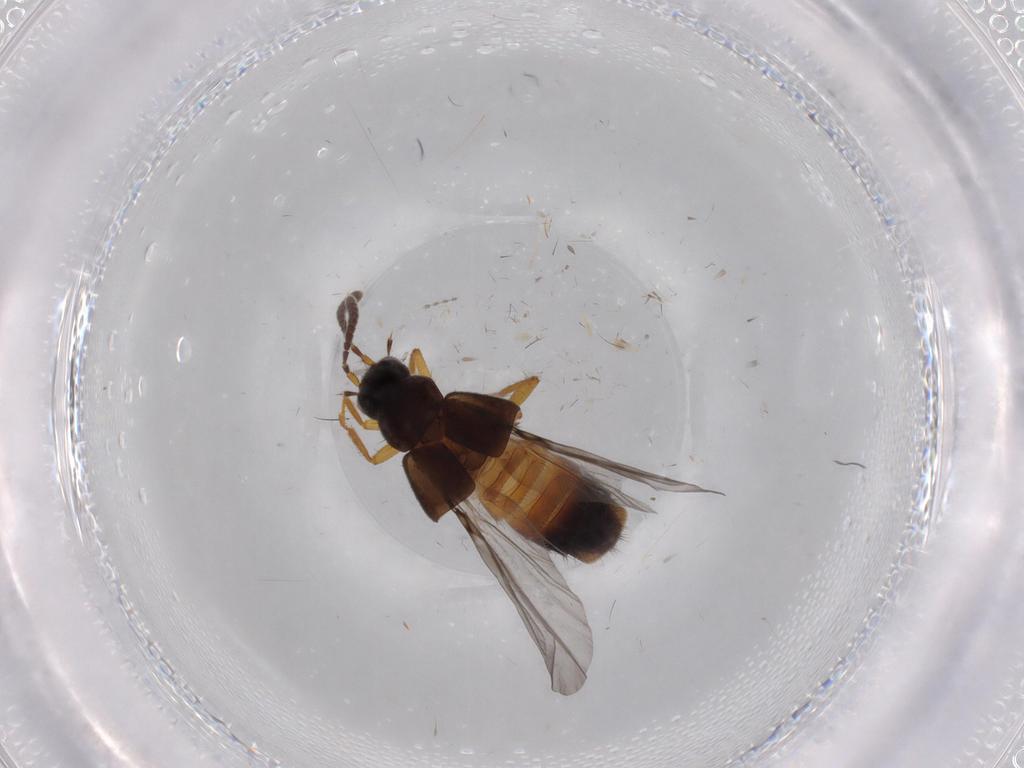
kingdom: Animalia
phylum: Arthropoda
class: Insecta
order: Coleoptera
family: Staphylinidae
